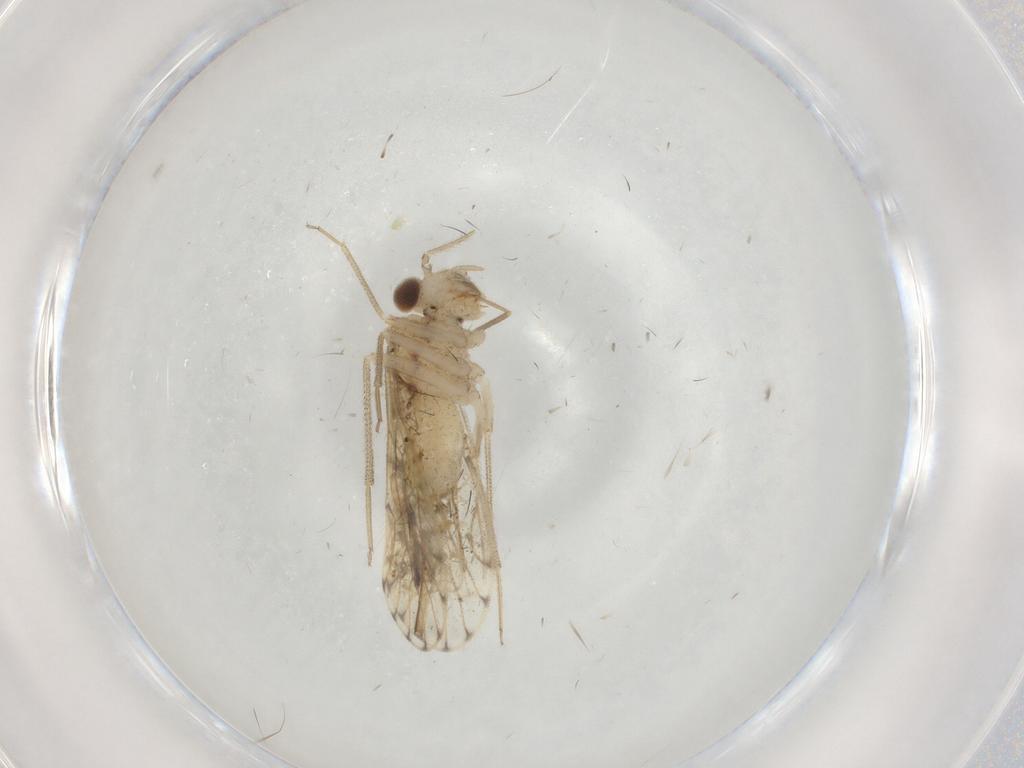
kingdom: Animalia
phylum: Arthropoda
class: Insecta
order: Psocodea
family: Epipsocidae
